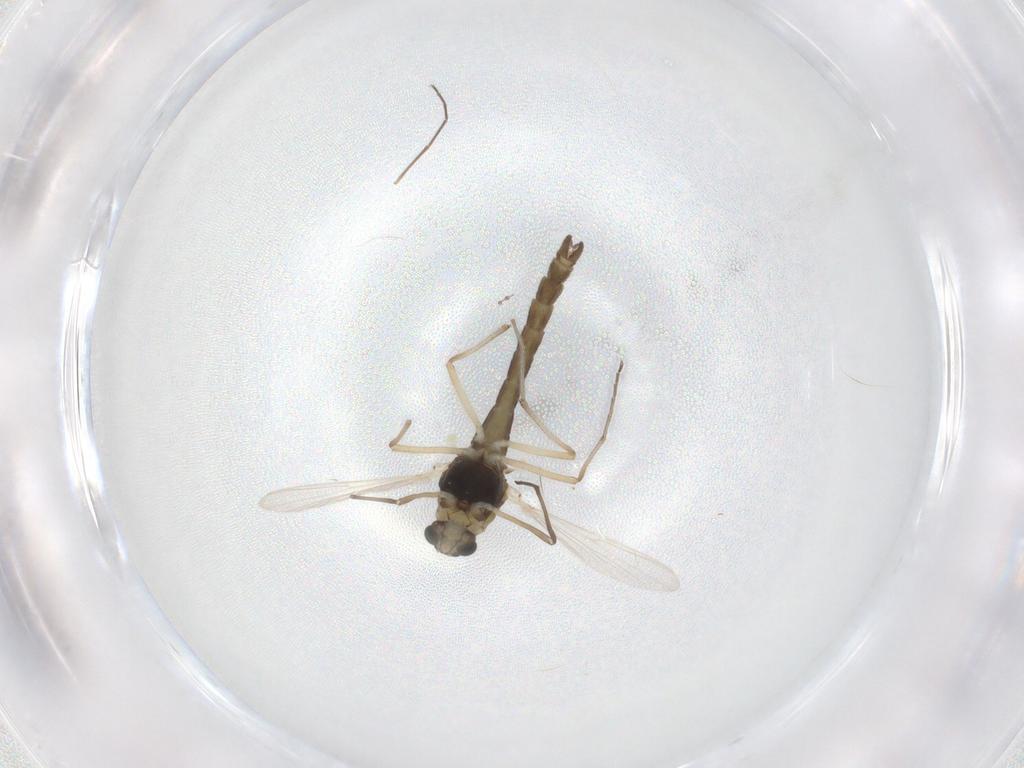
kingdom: Animalia
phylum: Arthropoda
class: Insecta
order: Diptera
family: Chironomidae
